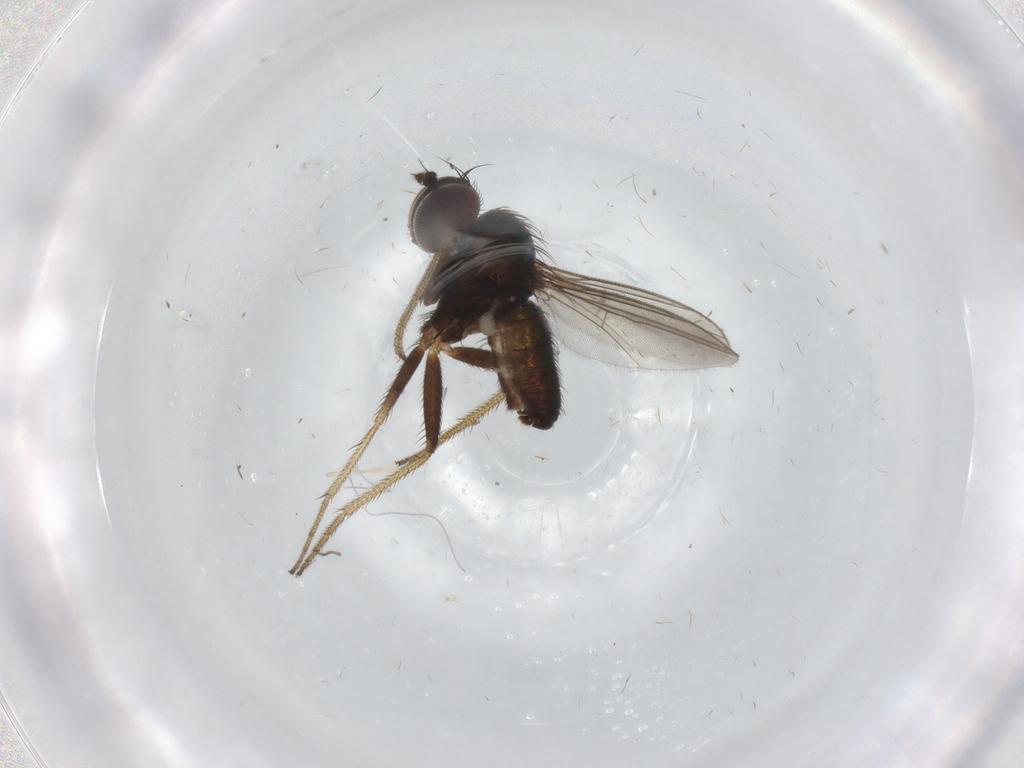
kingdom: Animalia
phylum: Arthropoda
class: Insecta
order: Diptera
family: Ceratopogonidae
